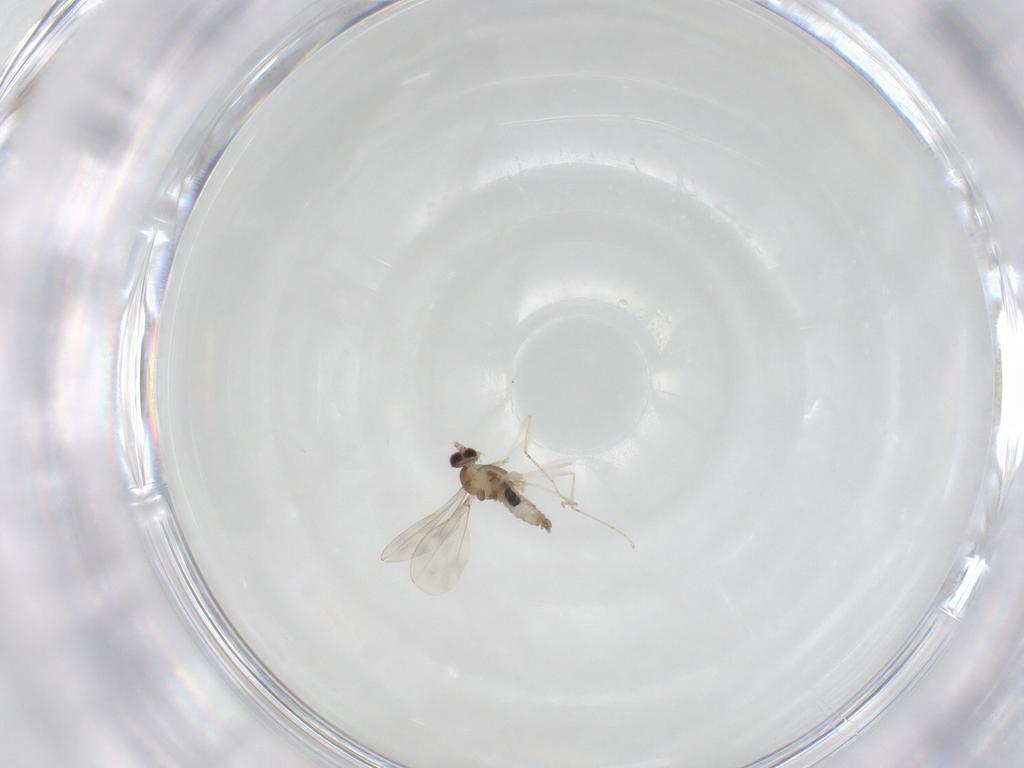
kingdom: Animalia
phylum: Arthropoda
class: Insecta
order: Diptera
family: Cecidomyiidae
